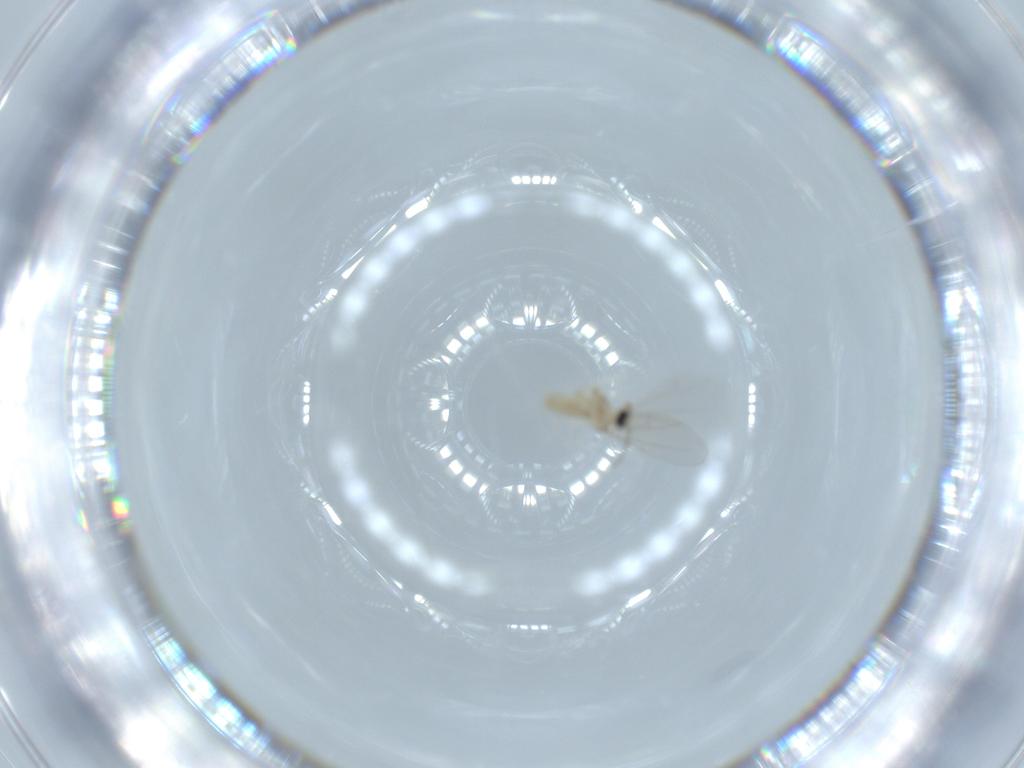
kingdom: Animalia
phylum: Arthropoda
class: Insecta
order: Diptera
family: Cecidomyiidae
